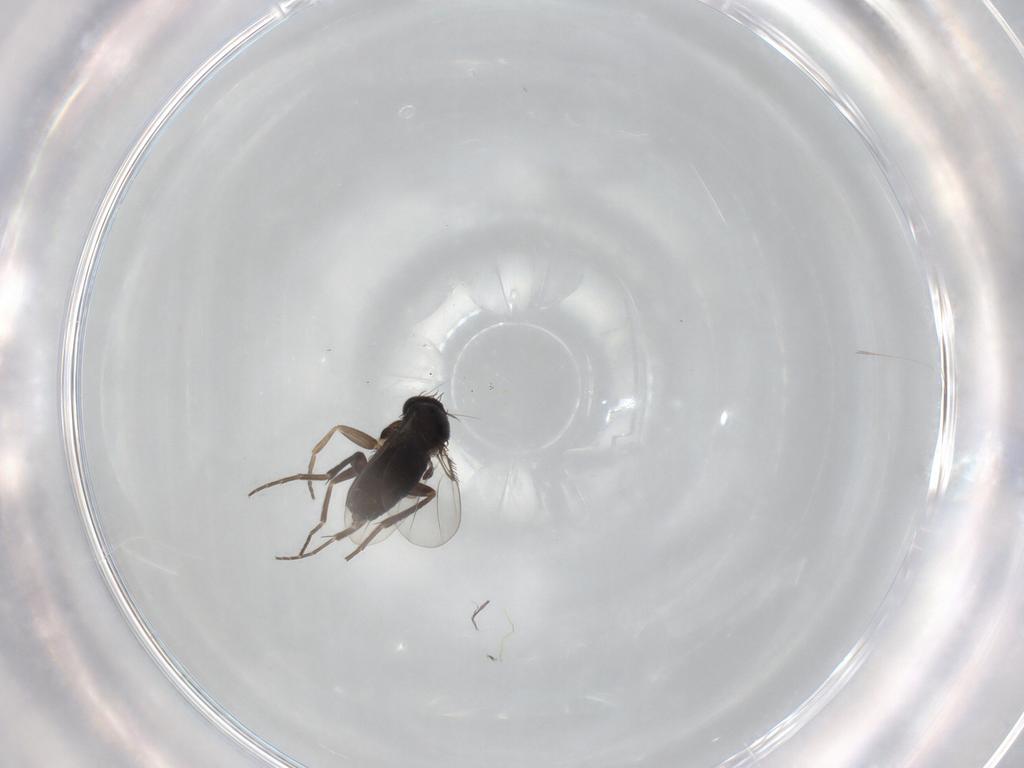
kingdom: Animalia
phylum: Arthropoda
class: Insecta
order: Diptera
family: Phoridae
